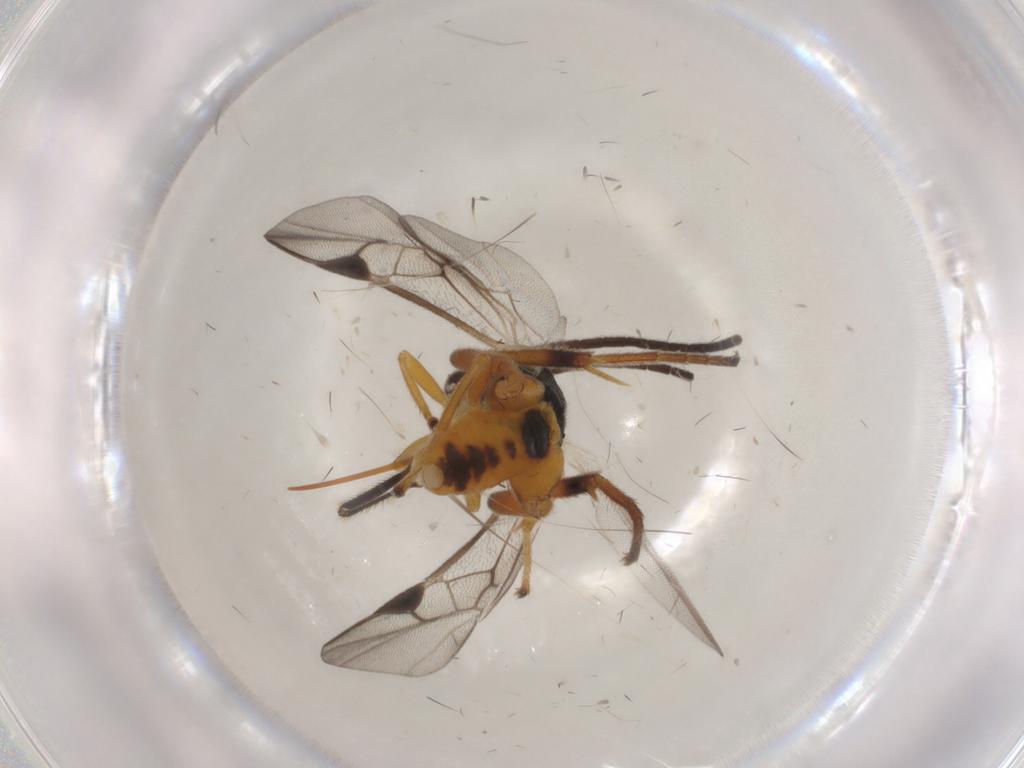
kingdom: Animalia
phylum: Arthropoda
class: Insecta
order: Hymenoptera
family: Braconidae
